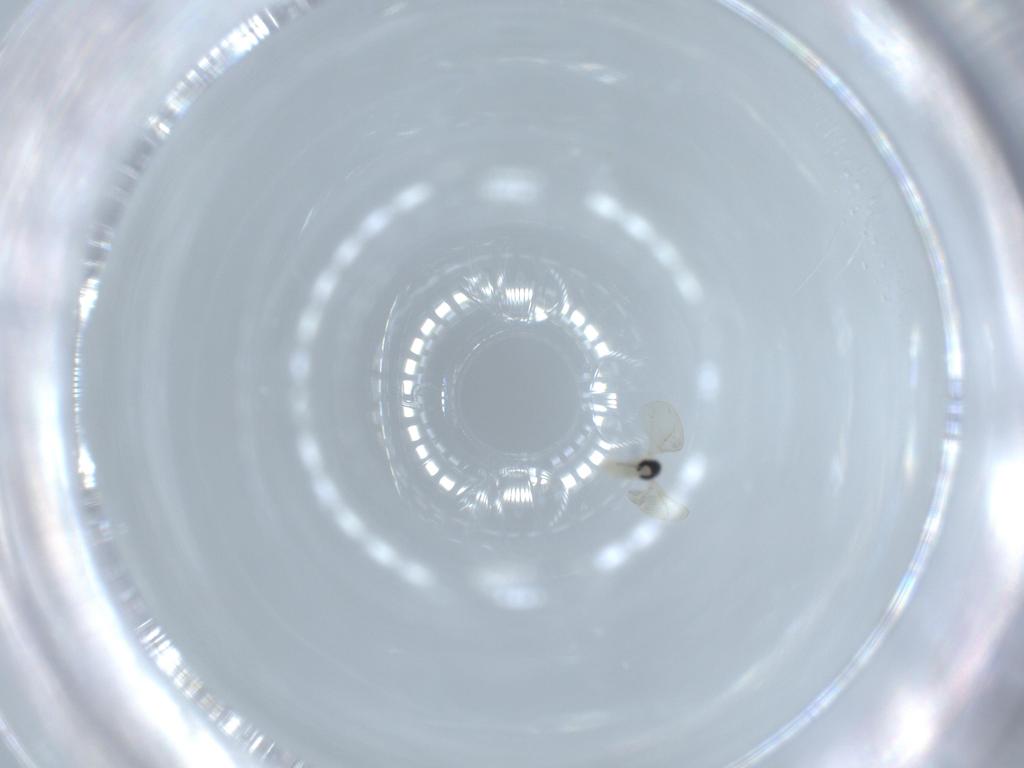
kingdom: Animalia
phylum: Arthropoda
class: Insecta
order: Diptera
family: Cecidomyiidae
